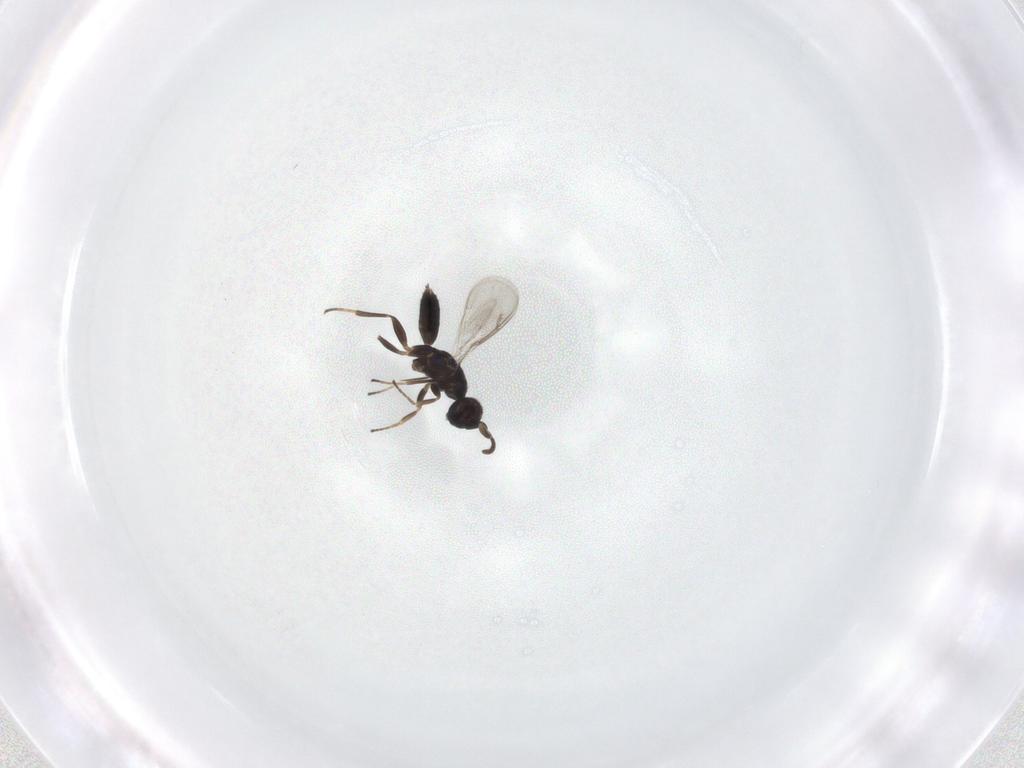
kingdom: Animalia
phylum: Arthropoda
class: Insecta
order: Hymenoptera
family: Eupelmidae
